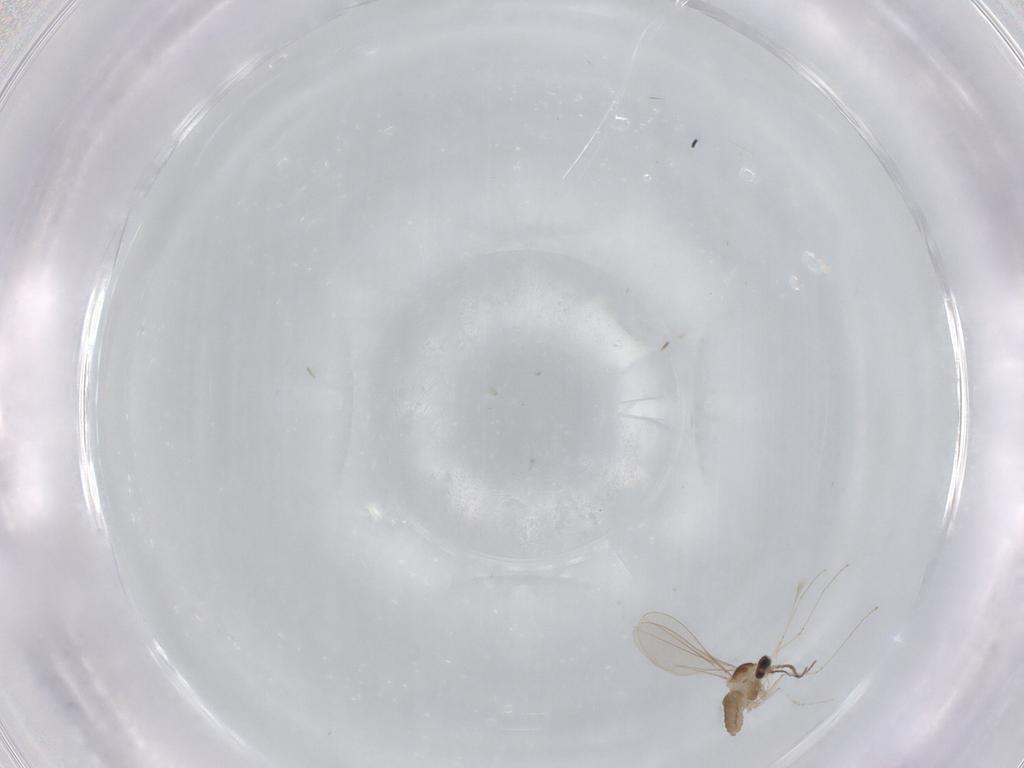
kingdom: Animalia
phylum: Arthropoda
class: Insecta
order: Diptera
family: Cecidomyiidae
